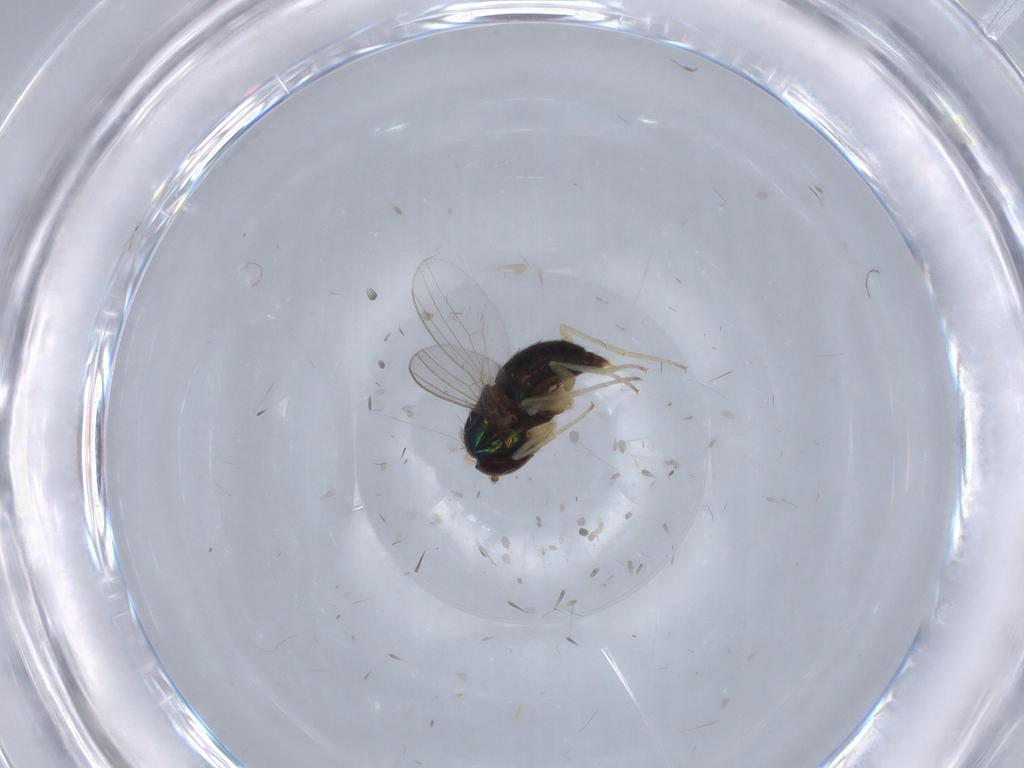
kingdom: Animalia
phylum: Arthropoda
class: Insecta
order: Diptera
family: Dolichopodidae
